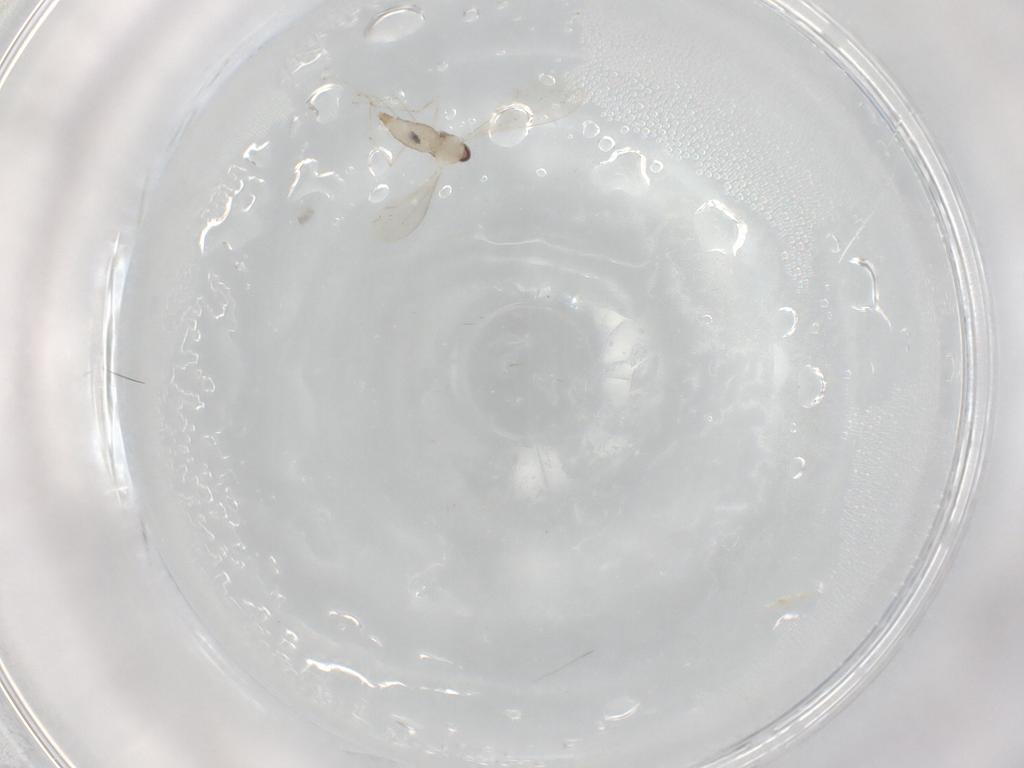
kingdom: Animalia
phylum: Arthropoda
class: Insecta
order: Diptera
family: Cecidomyiidae
